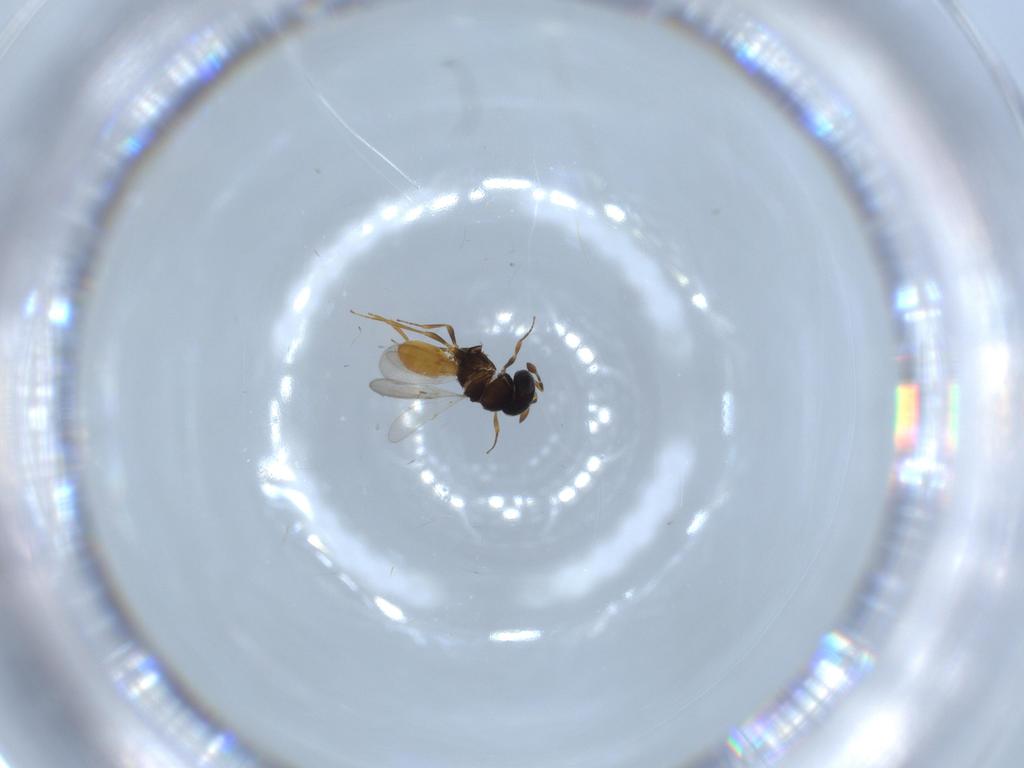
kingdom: Animalia
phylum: Arthropoda
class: Insecta
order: Hymenoptera
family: Scelionidae
